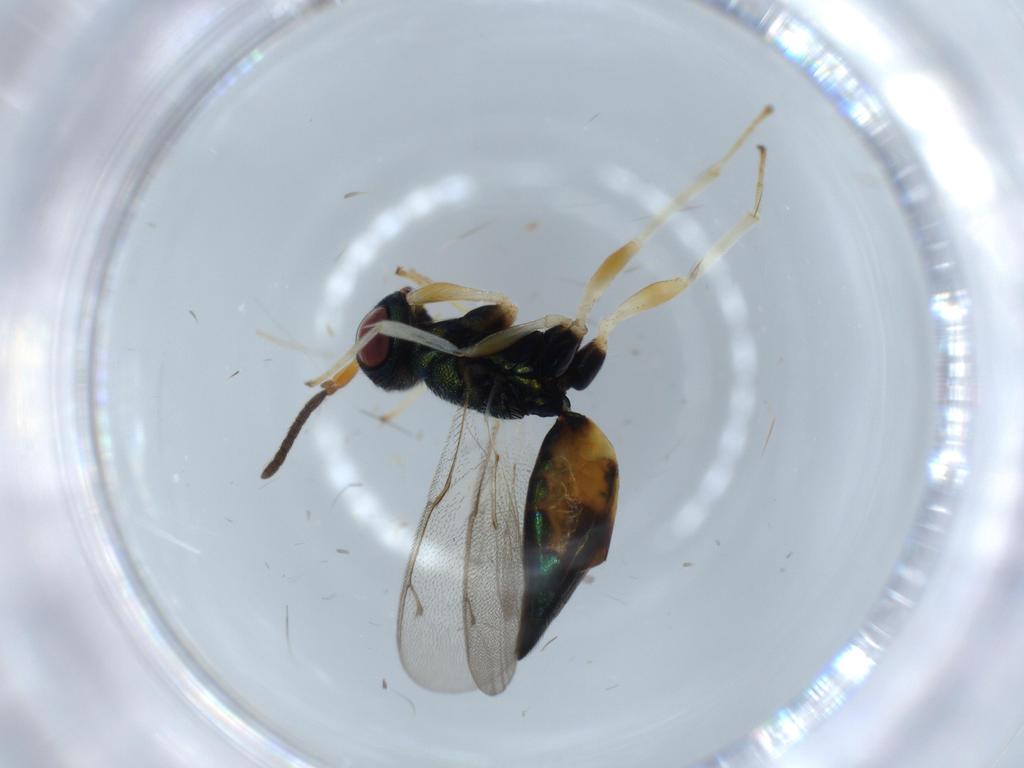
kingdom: Animalia
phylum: Arthropoda
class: Insecta
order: Hymenoptera
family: Pteromalidae
